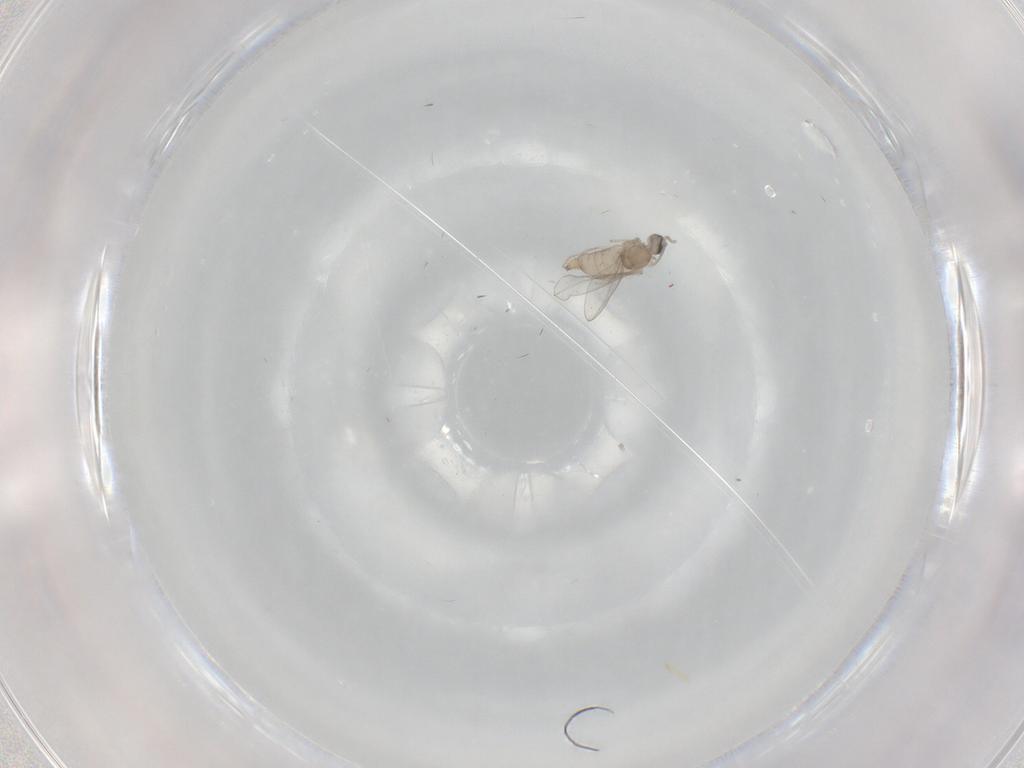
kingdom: Animalia
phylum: Arthropoda
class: Insecta
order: Diptera
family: Cecidomyiidae
